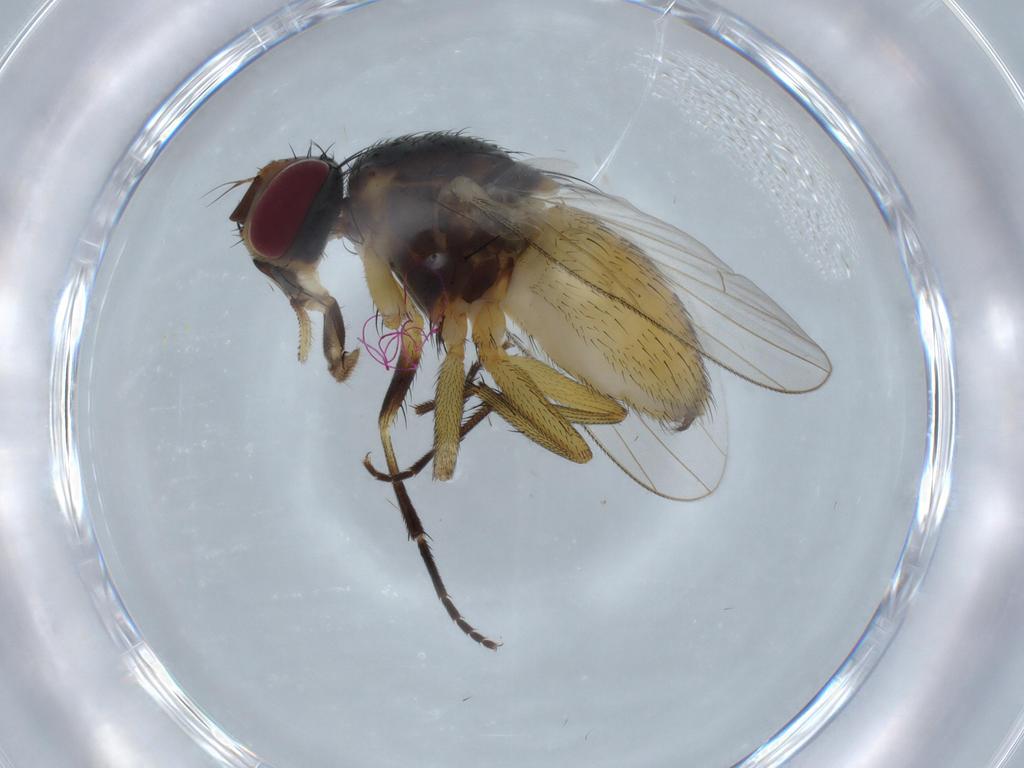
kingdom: Animalia
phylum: Arthropoda
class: Insecta
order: Diptera
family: Muscidae
